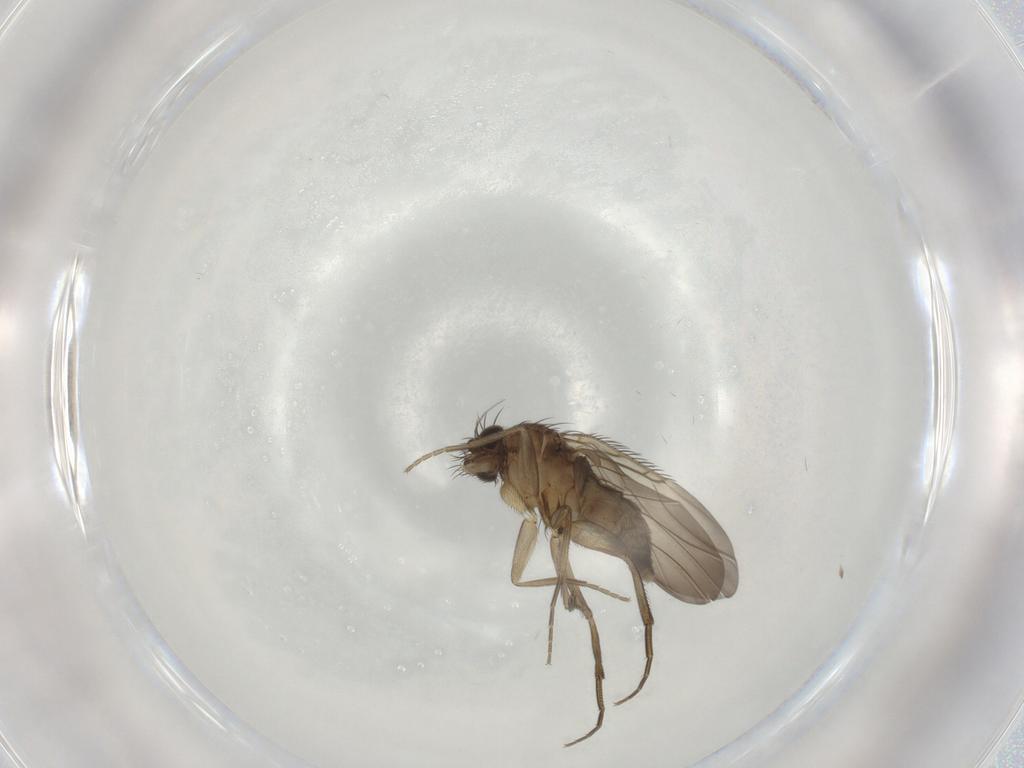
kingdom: Animalia
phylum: Arthropoda
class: Insecta
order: Diptera
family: Phoridae
